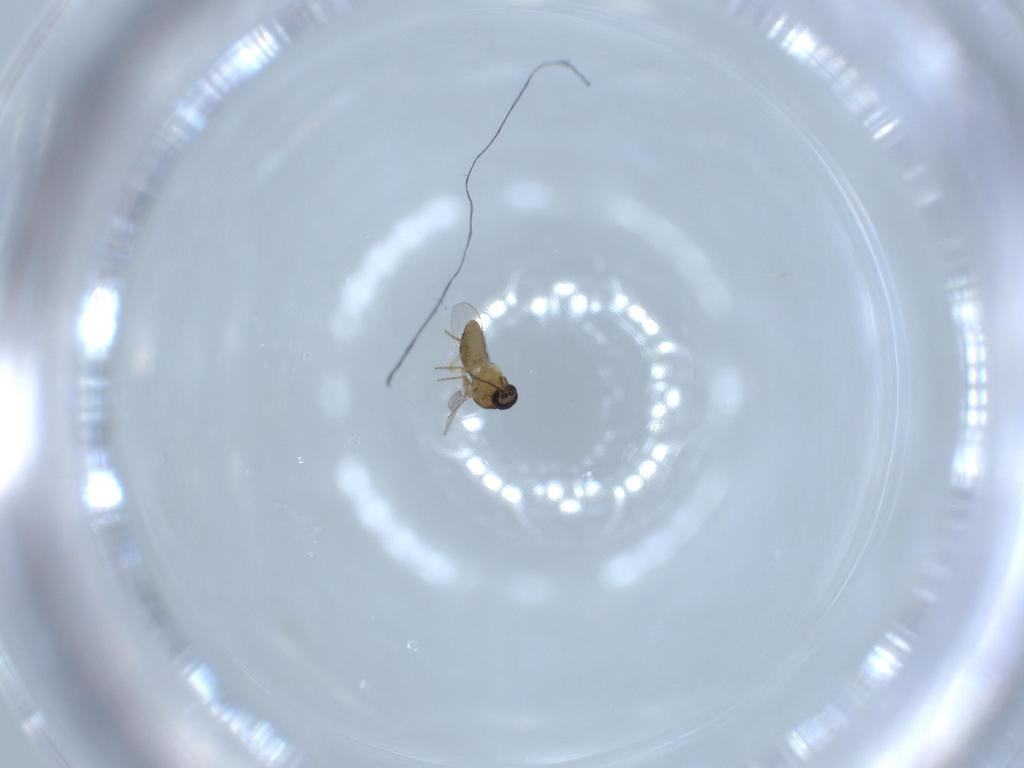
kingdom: Animalia
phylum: Arthropoda
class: Insecta
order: Diptera
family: Ceratopogonidae
